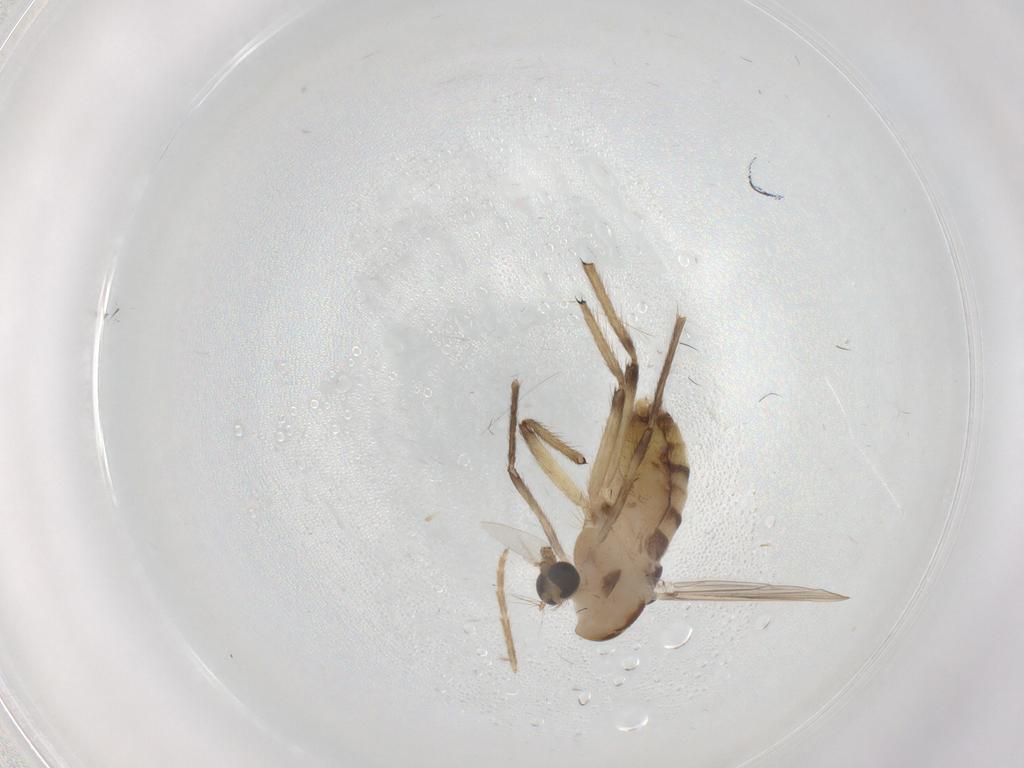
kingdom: Animalia
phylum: Arthropoda
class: Insecta
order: Diptera
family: Chironomidae
